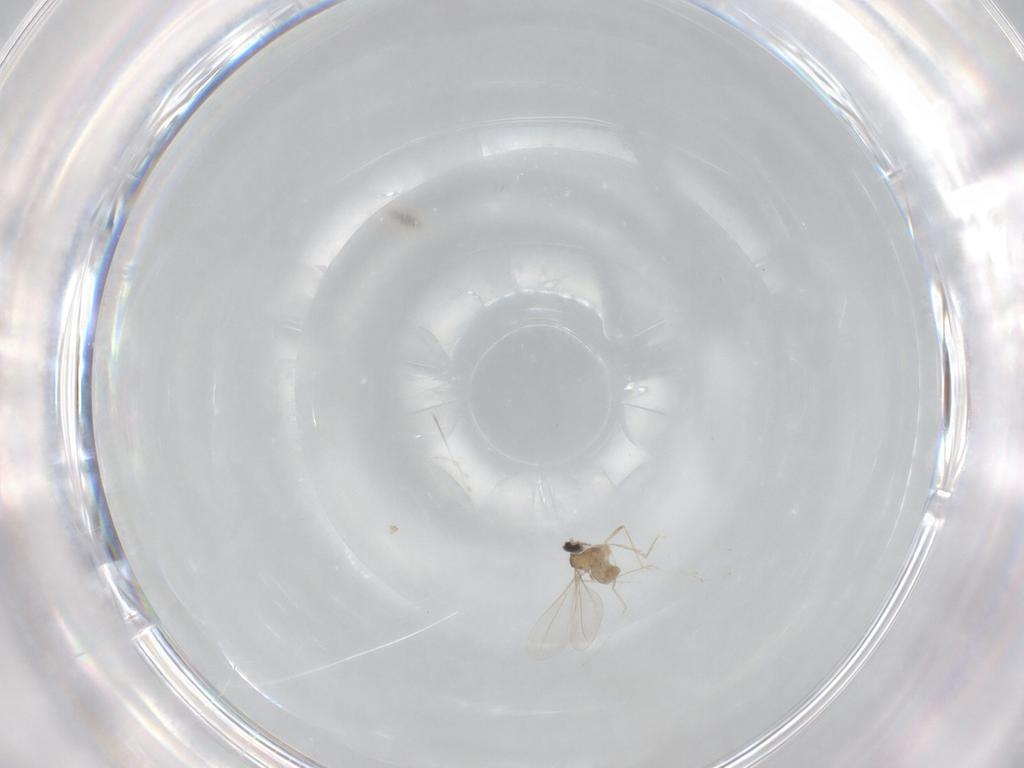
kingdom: Animalia
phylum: Arthropoda
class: Insecta
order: Diptera
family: Cecidomyiidae
